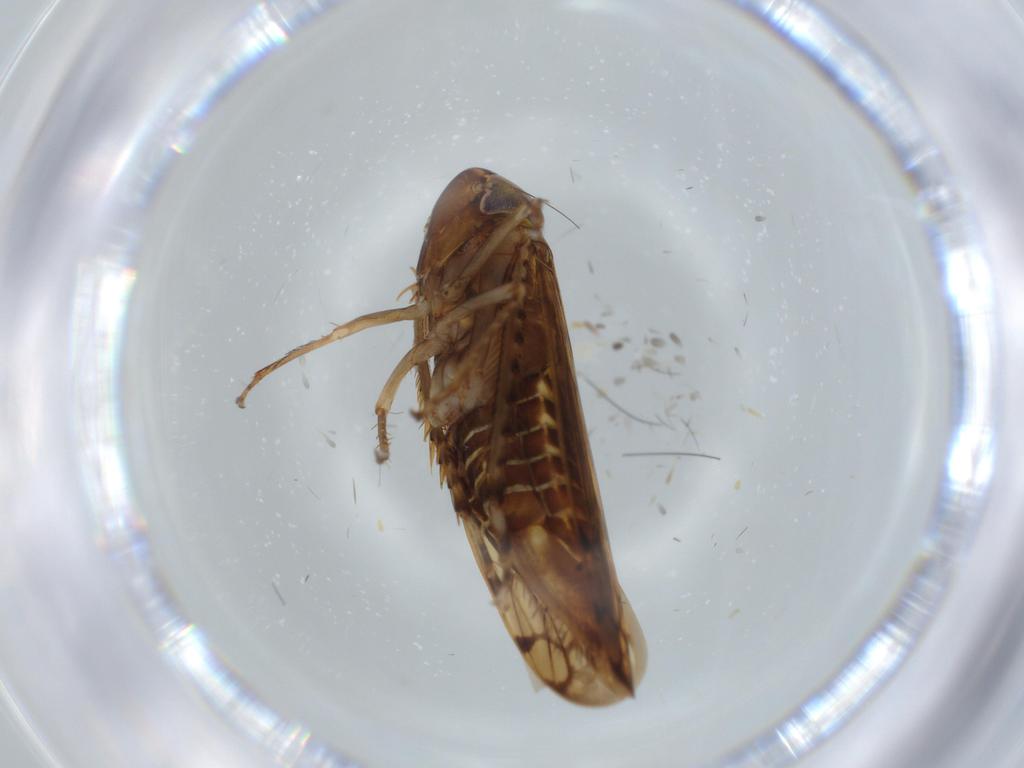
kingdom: Animalia
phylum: Arthropoda
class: Insecta
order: Hemiptera
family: Cicadellidae
